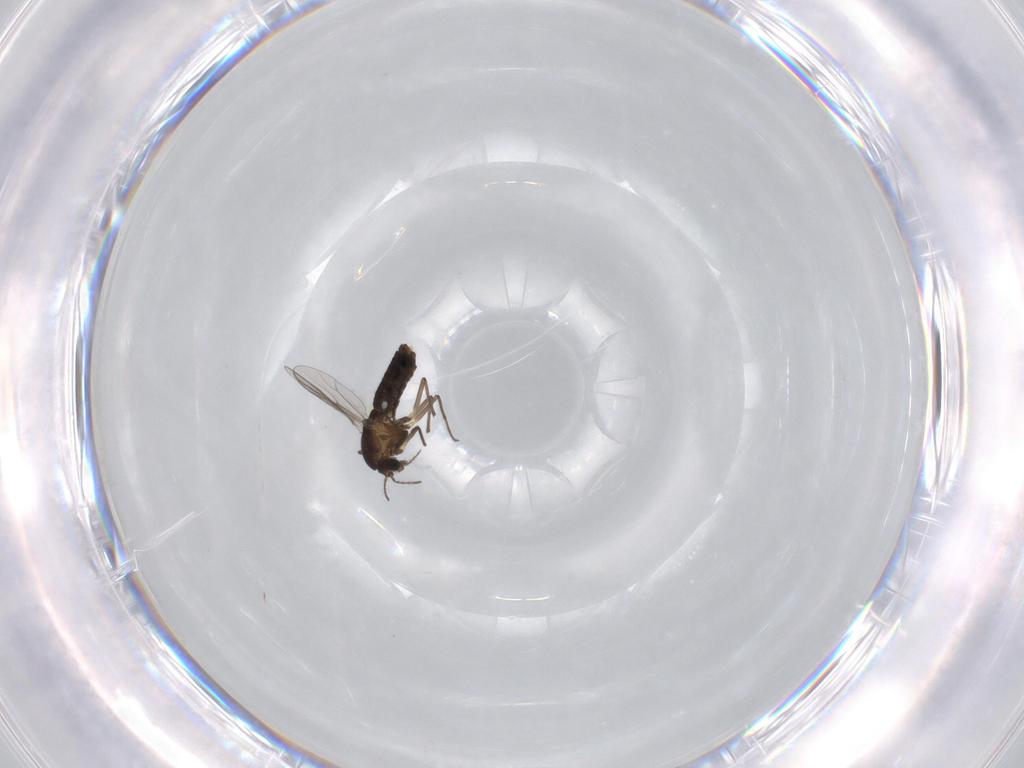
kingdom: Animalia
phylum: Arthropoda
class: Insecta
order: Diptera
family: Chironomidae
